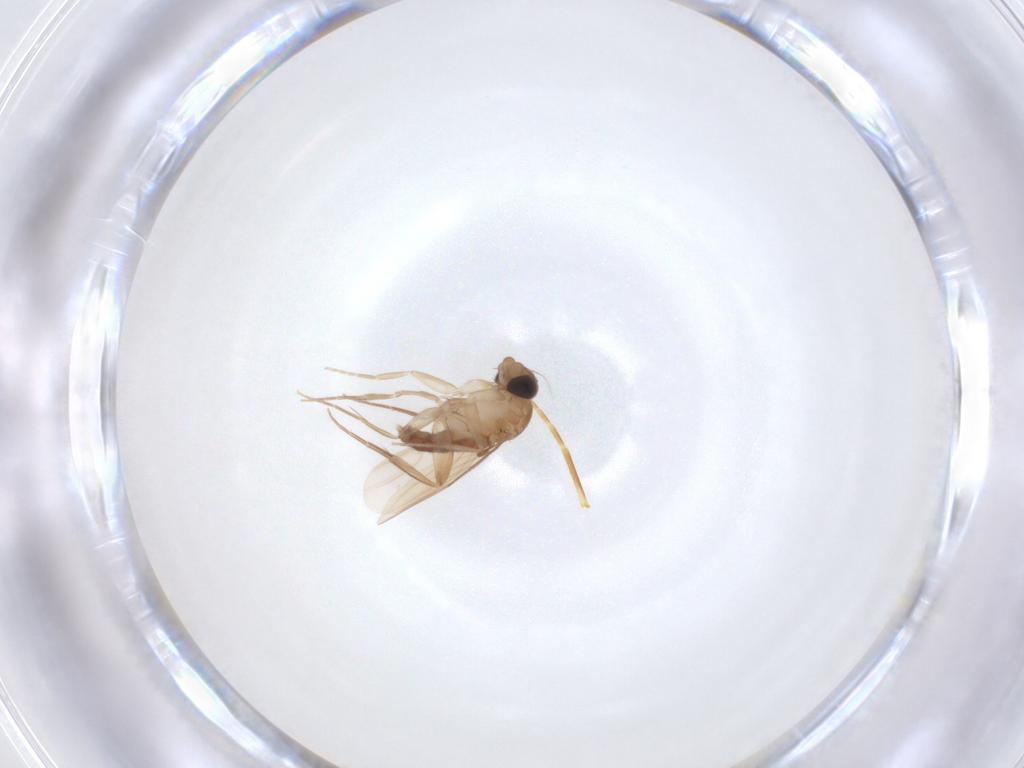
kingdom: Animalia
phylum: Arthropoda
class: Insecta
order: Diptera
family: Phoridae
